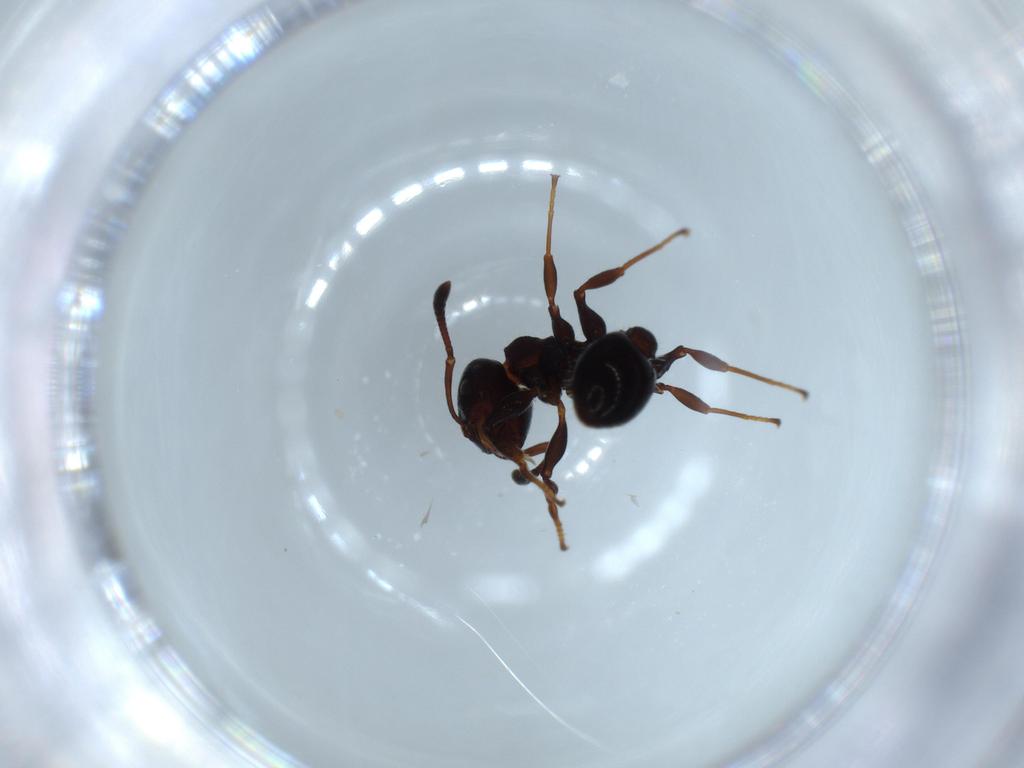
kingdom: Animalia
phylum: Arthropoda
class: Insecta
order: Hymenoptera
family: Formicidae
